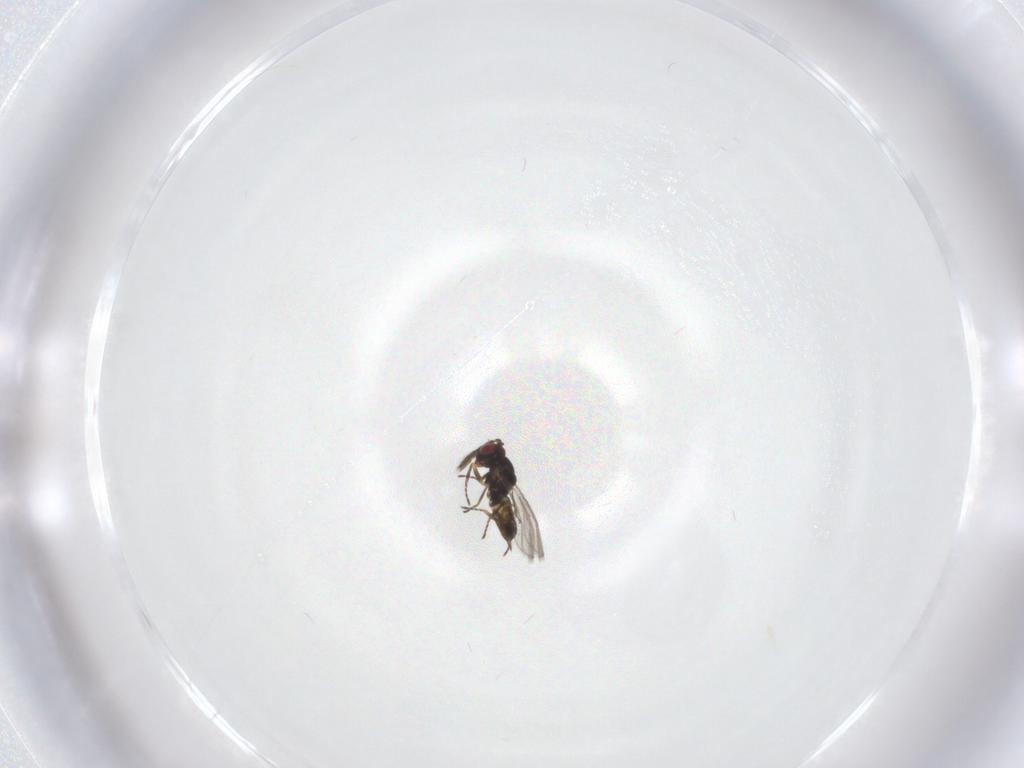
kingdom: Animalia
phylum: Arthropoda
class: Insecta
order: Hymenoptera
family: Eulophidae
